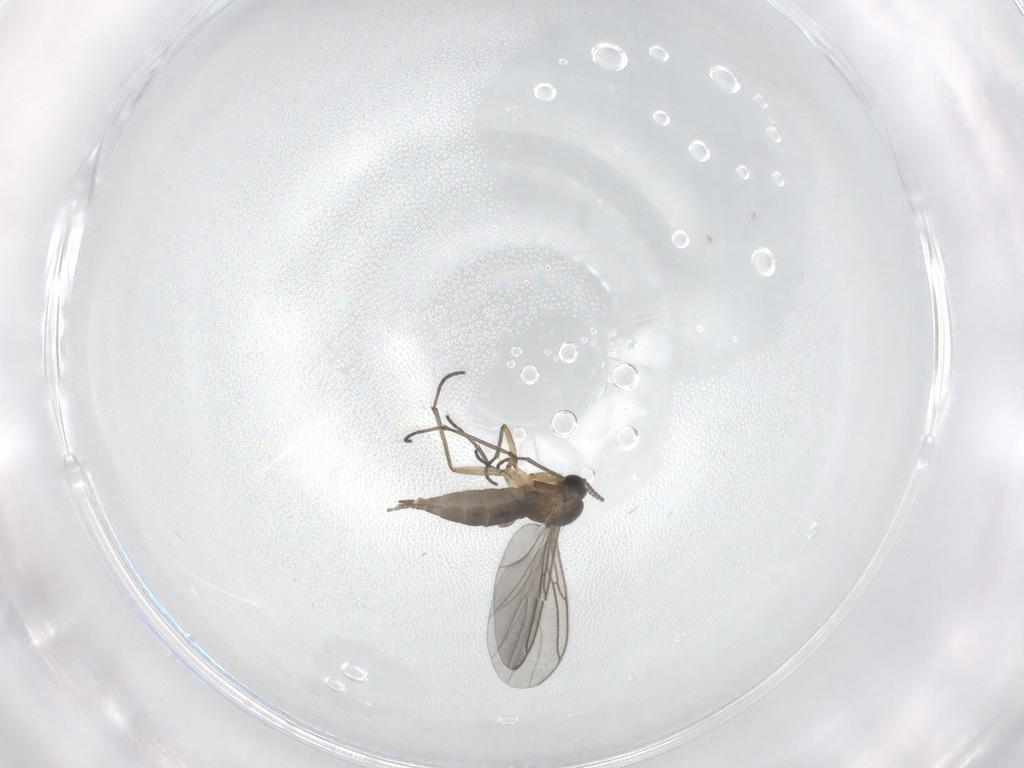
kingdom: Animalia
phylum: Arthropoda
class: Insecta
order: Diptera
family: Sciaridae
